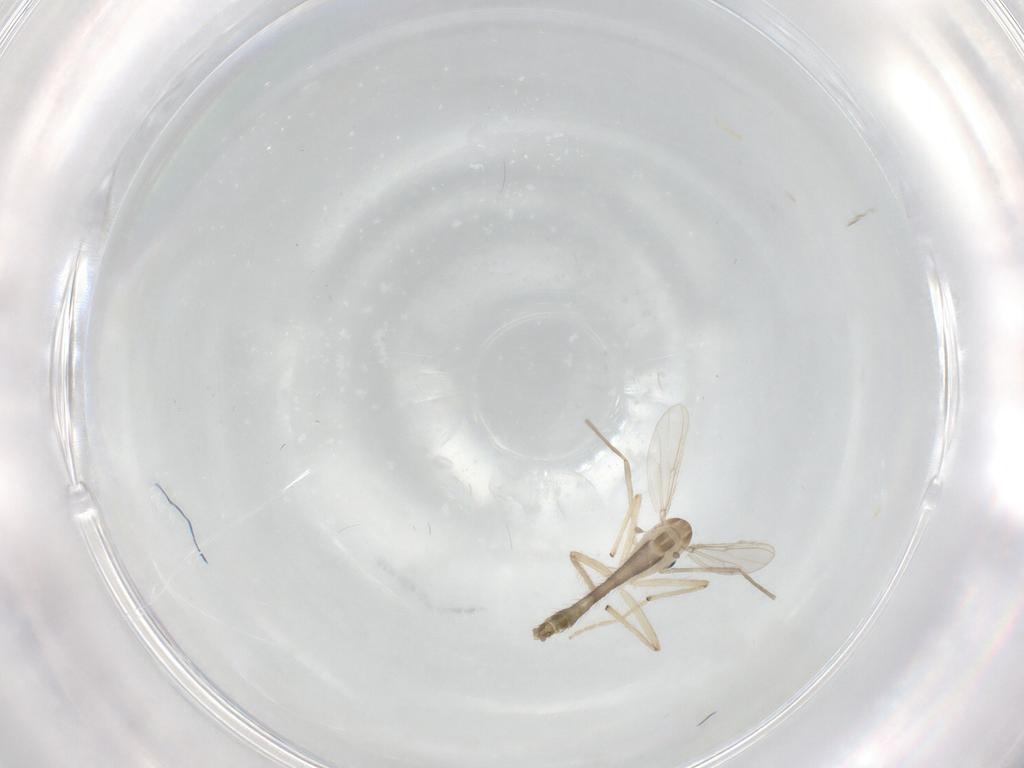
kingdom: Animalia
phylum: Arthropoda
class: Insecta
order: Diptera
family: Chironomidae
